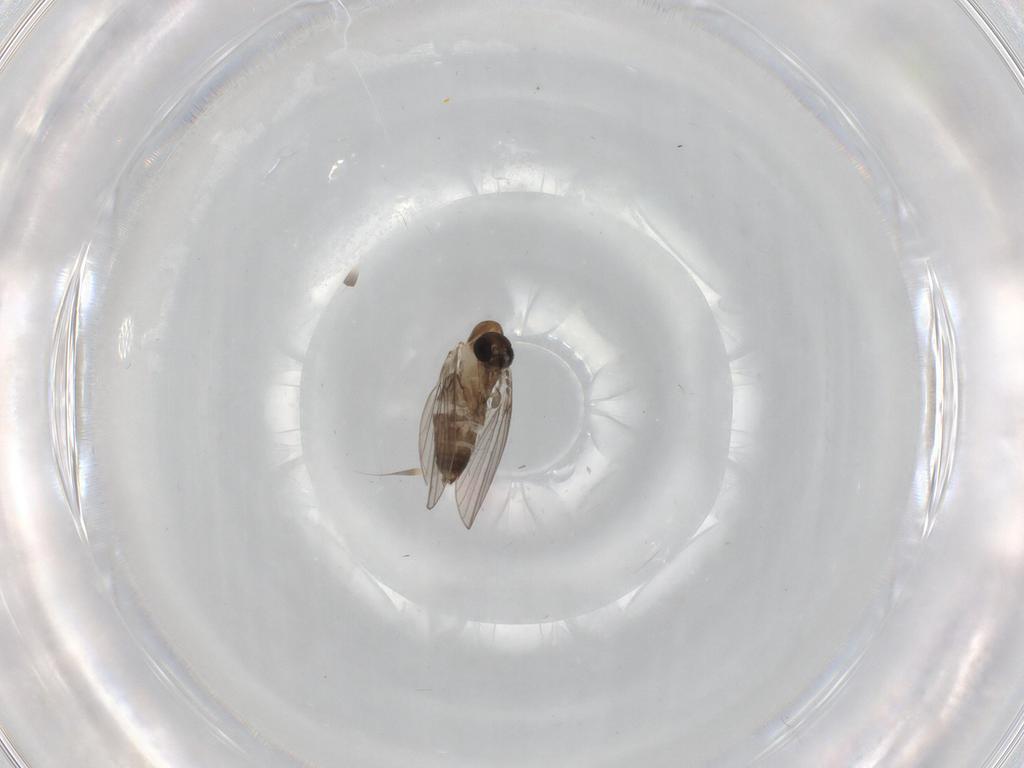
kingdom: Animalia
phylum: Arthropoda
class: Insecta
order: Diptera
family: Psychodidae
